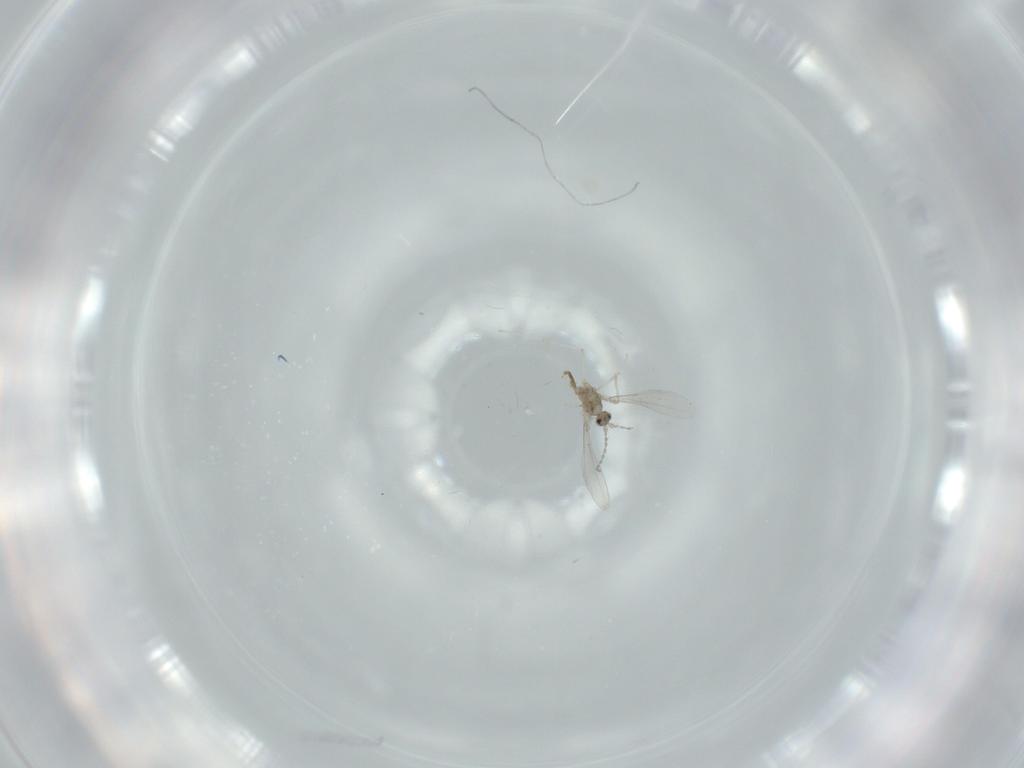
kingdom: Animalia
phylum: Arthropoda
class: Insecta
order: Diptera
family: Cecidomyiidae
